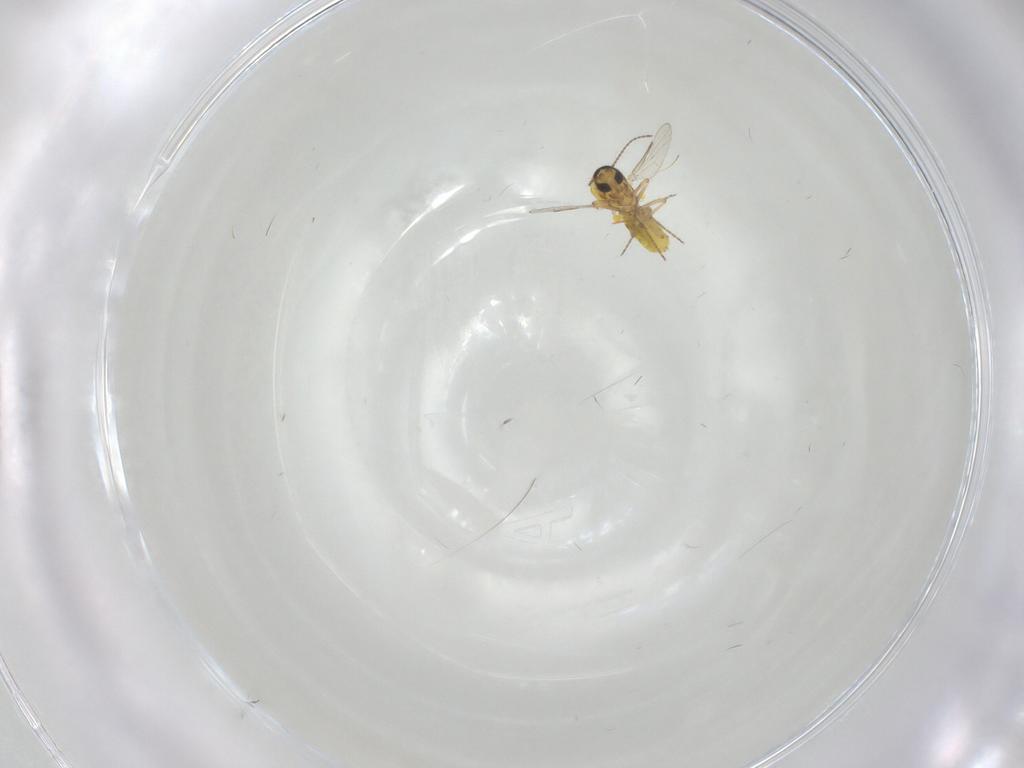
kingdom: Animalia
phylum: Arthropoda
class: Insecta
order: Diptera
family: Ceratopogonidae
